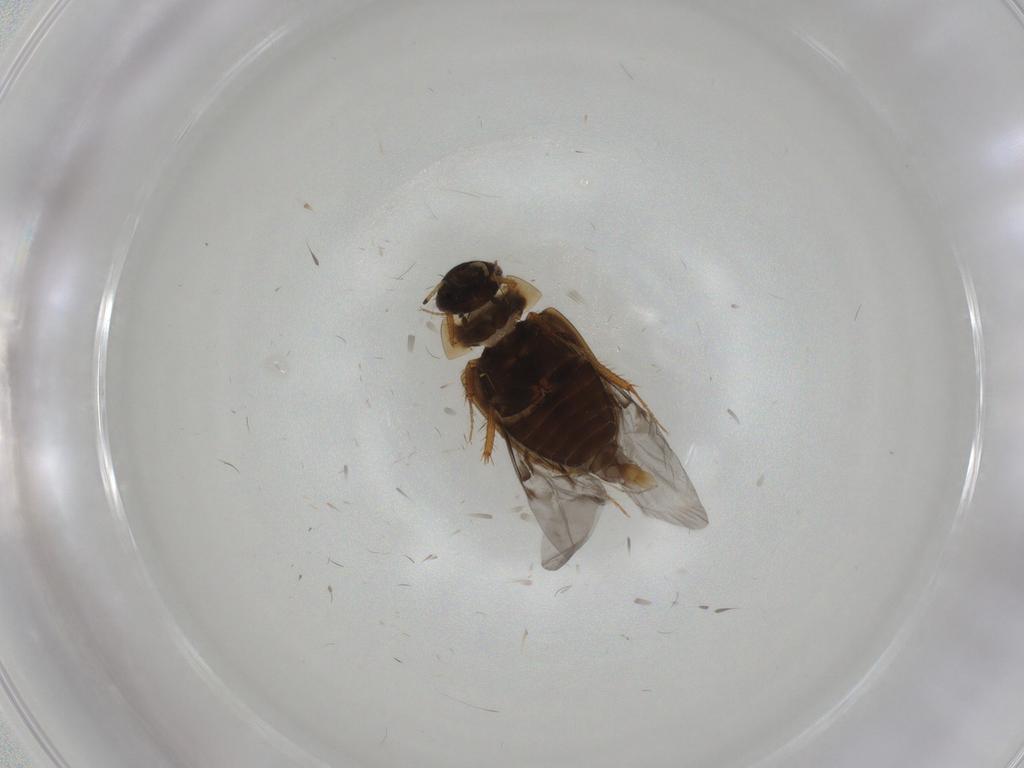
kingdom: Animalia
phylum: Arthropoda
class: Insecta
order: Coleoptera
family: Hydrophilidae
